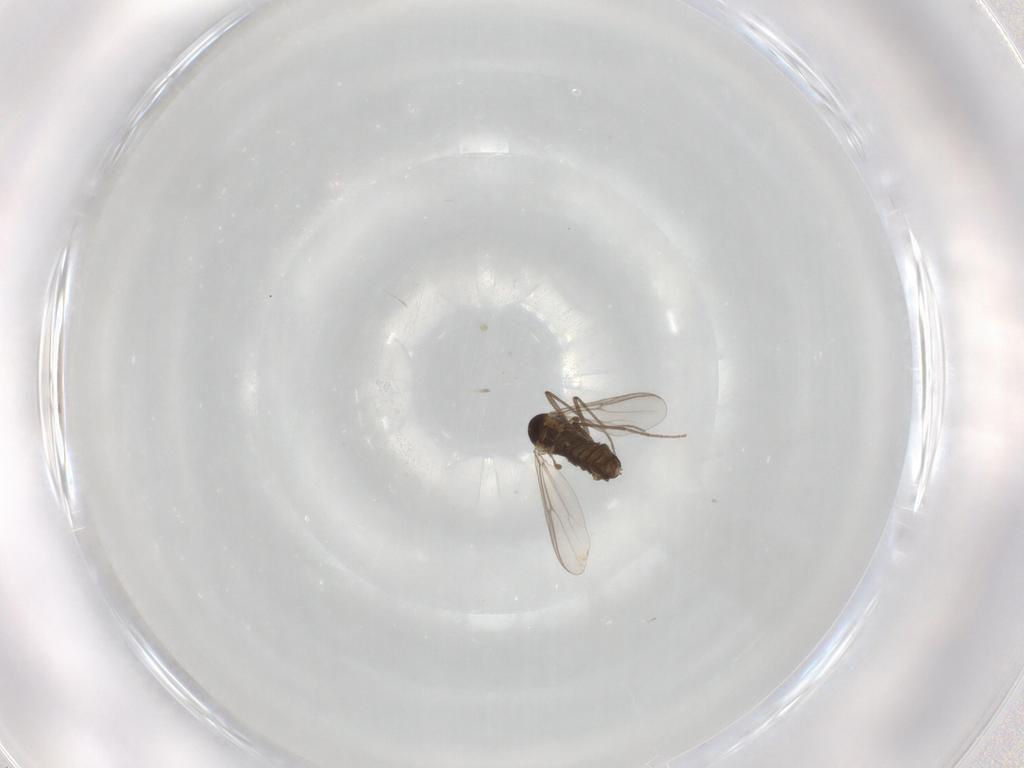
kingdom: Animalia
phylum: Arthropoda
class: Insecta
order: Diptera
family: Chironomidae
